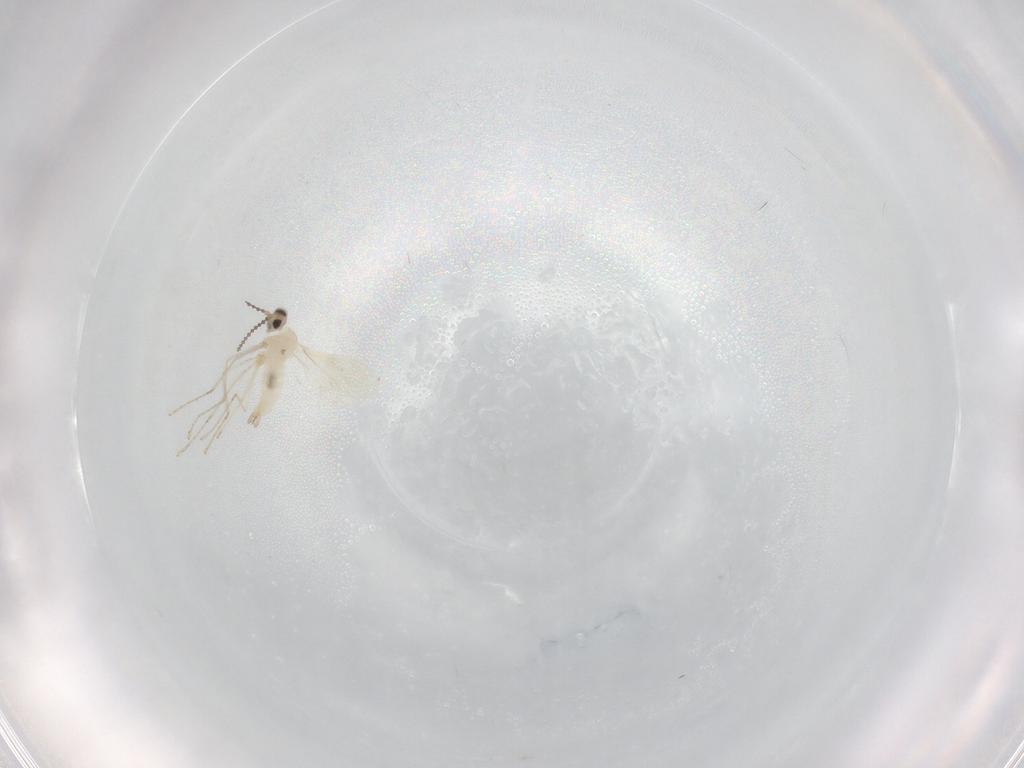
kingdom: Animalia
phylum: Arthropoda
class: Insecta
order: Diptera
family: Cecidomyiidae
